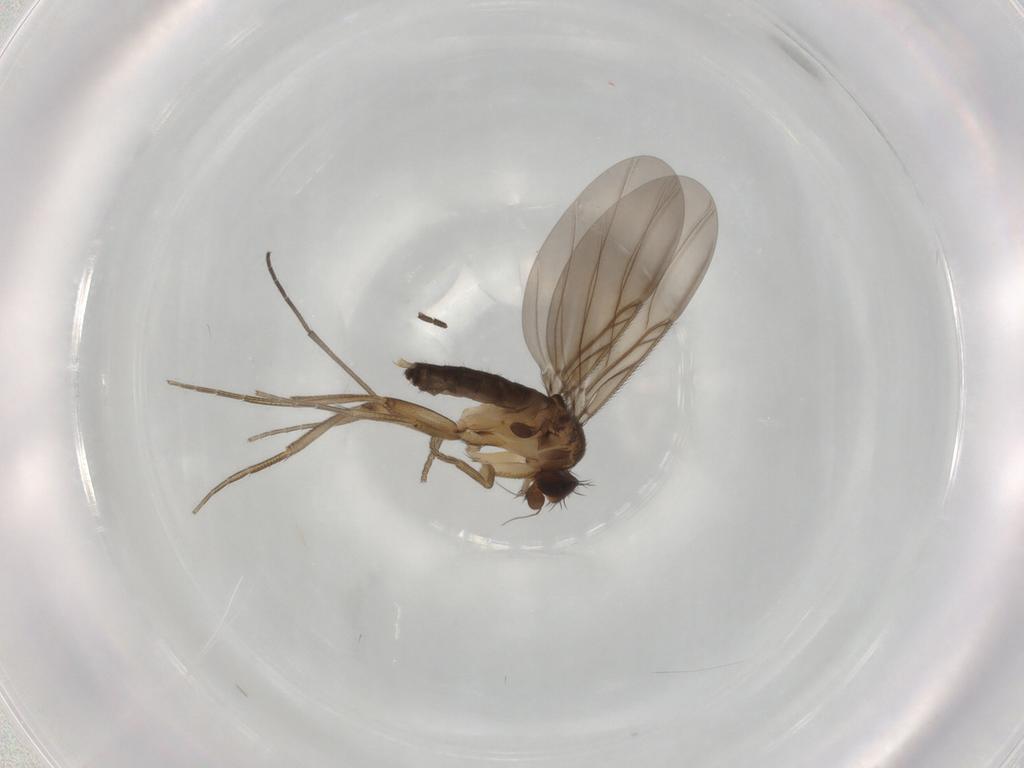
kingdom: Animalia
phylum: Arthropoda
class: Insecta
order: Diptera
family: Phoridae
